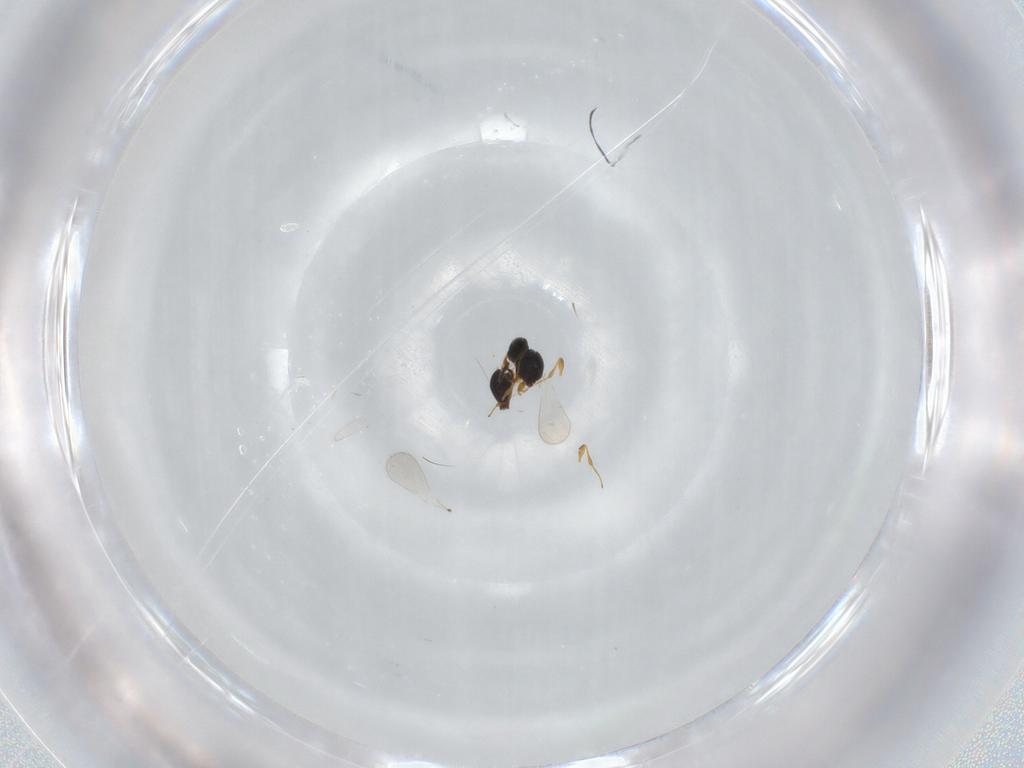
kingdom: Animalia
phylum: Arthropoda
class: Insecta
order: Hymenoptera
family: Platygastridae
